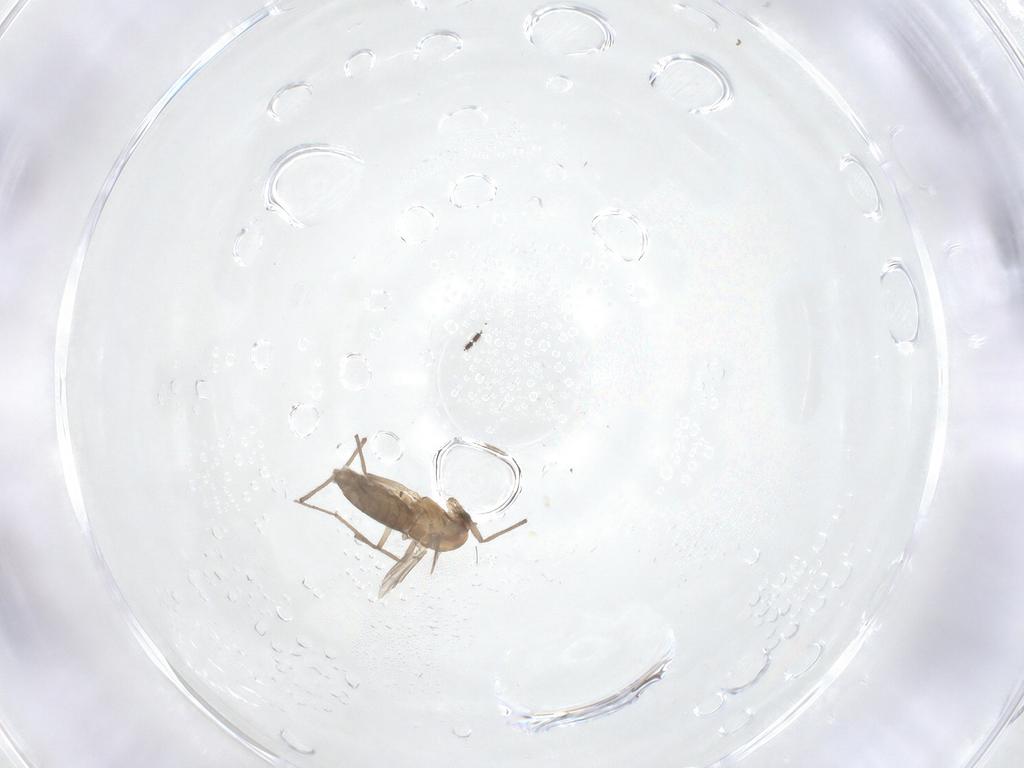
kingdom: Animalia
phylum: Arthropoda
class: Insecta
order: Diptera
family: Sciaridae
